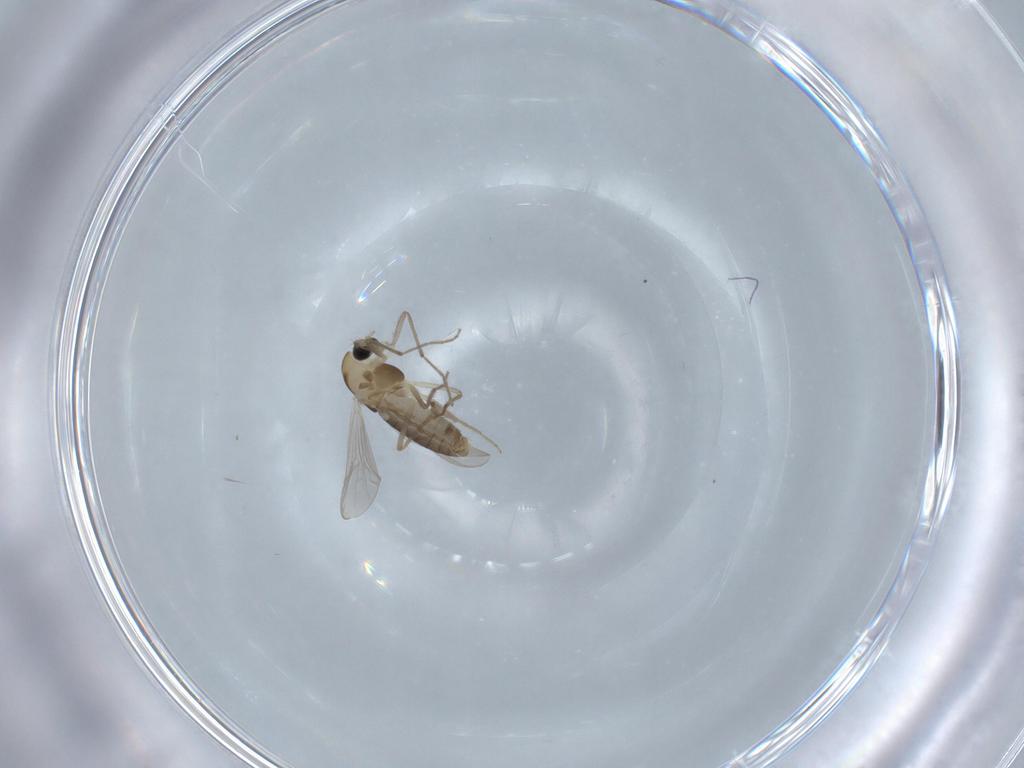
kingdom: Animalia
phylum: Arthropoda
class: Insecta
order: Diptera
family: Chironomidae
